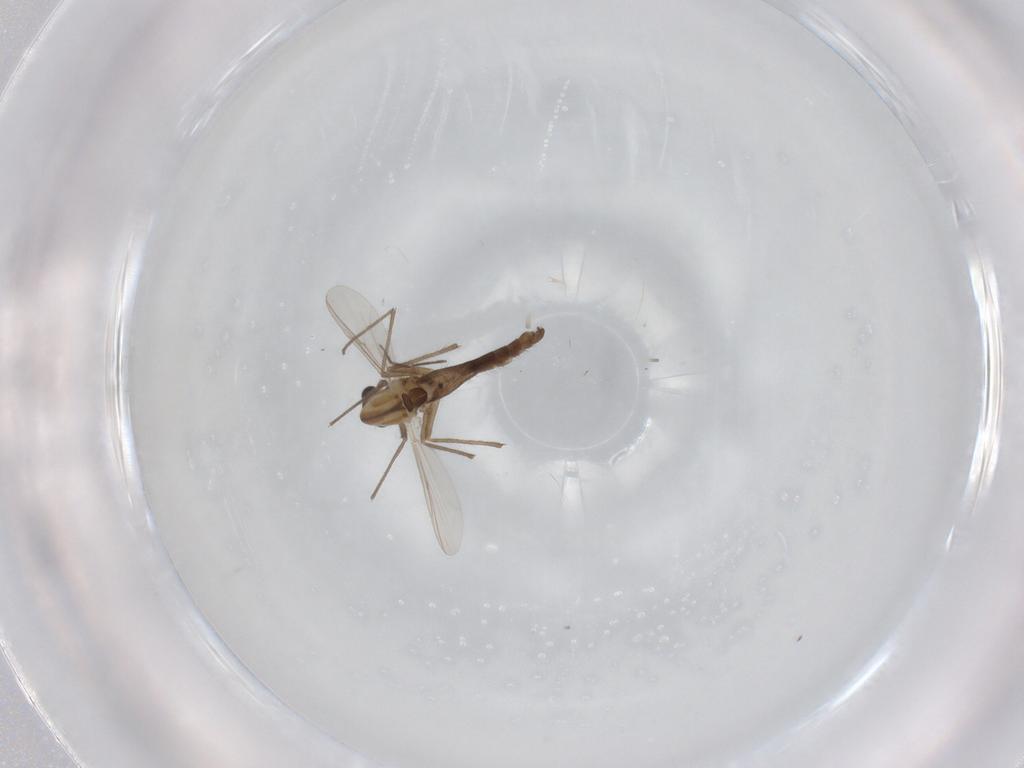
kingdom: Animalia
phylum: Arthropoda
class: Insecta
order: Diptera
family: Chironomidae
